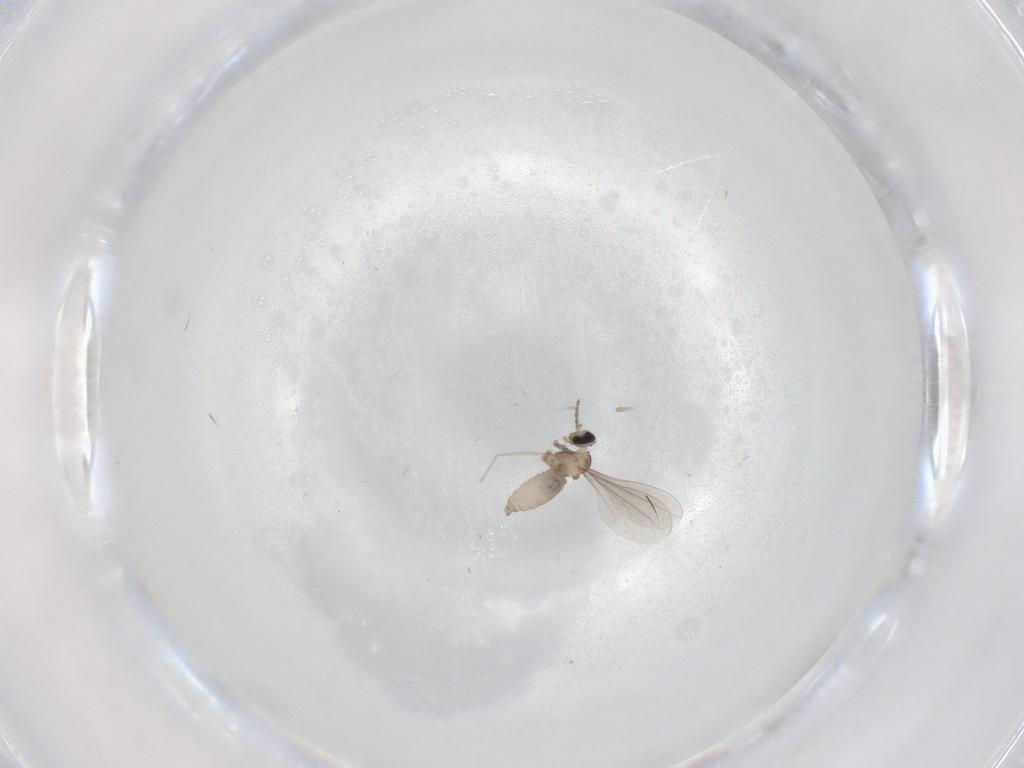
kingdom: Animalia
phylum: Arthropoda
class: Insecta
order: Diptera
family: Cecidomyiidae
